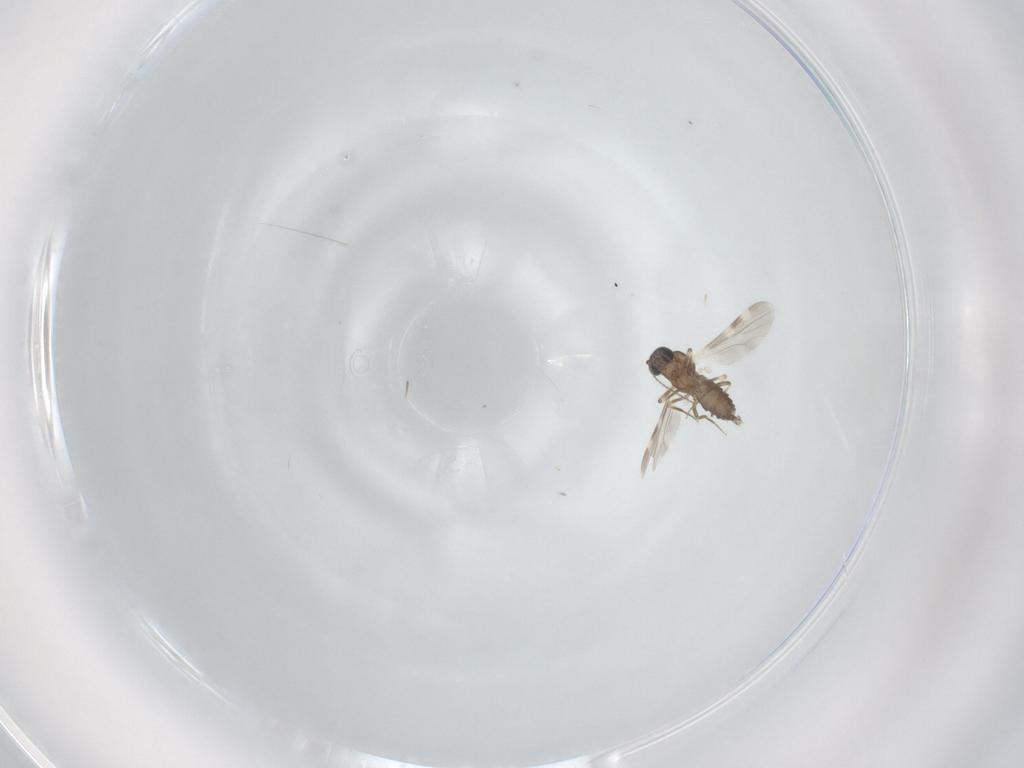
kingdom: Animalia
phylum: Arthropoda
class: Insecta
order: Diptera
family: Ceratopogonidae
